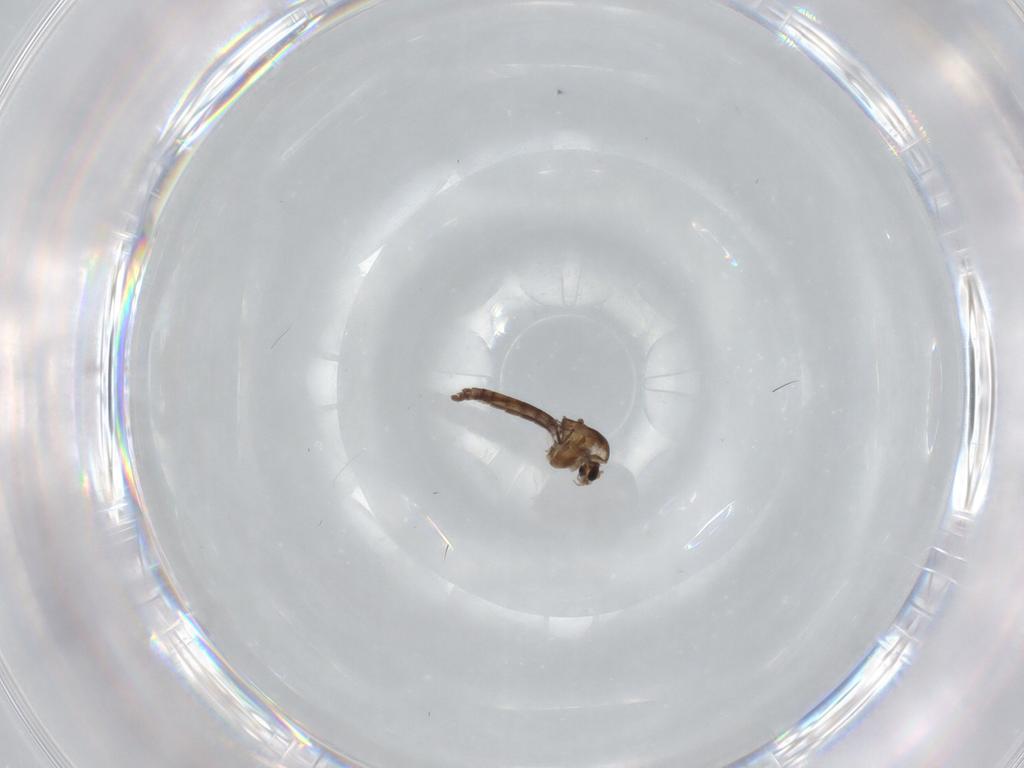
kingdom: Animalia
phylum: Arthropoda
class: Insecta
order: Diptera
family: Chironomidae
